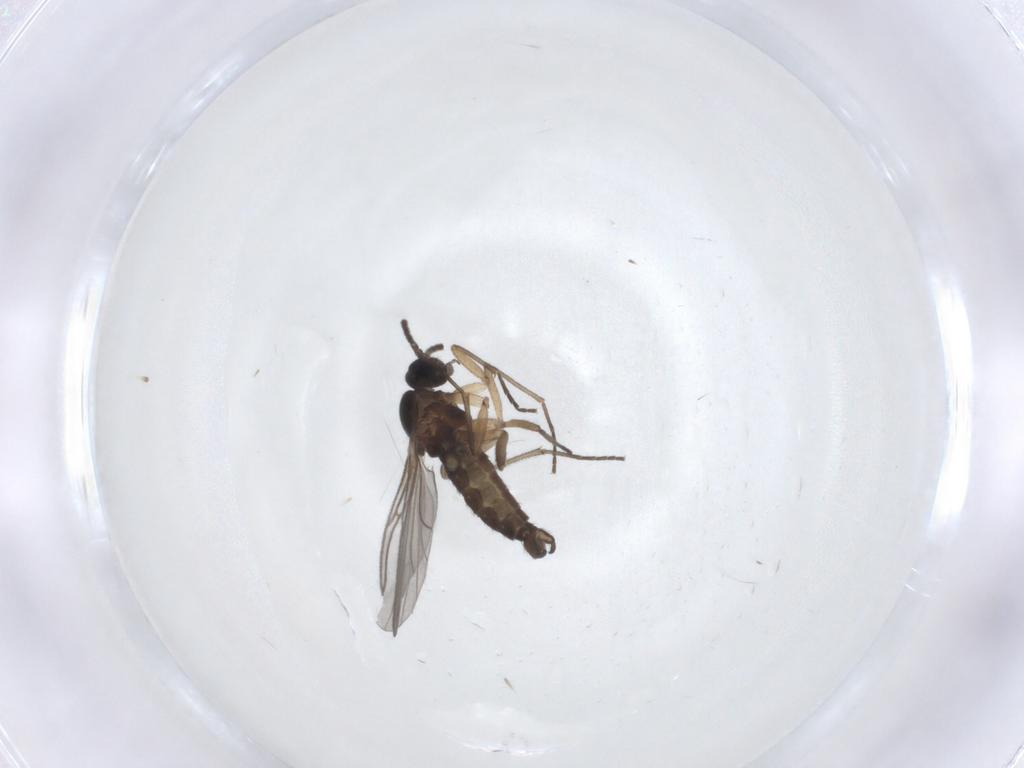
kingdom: Animalia
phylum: Arthropoda
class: Insecta
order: Diptera
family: Sciaridae
